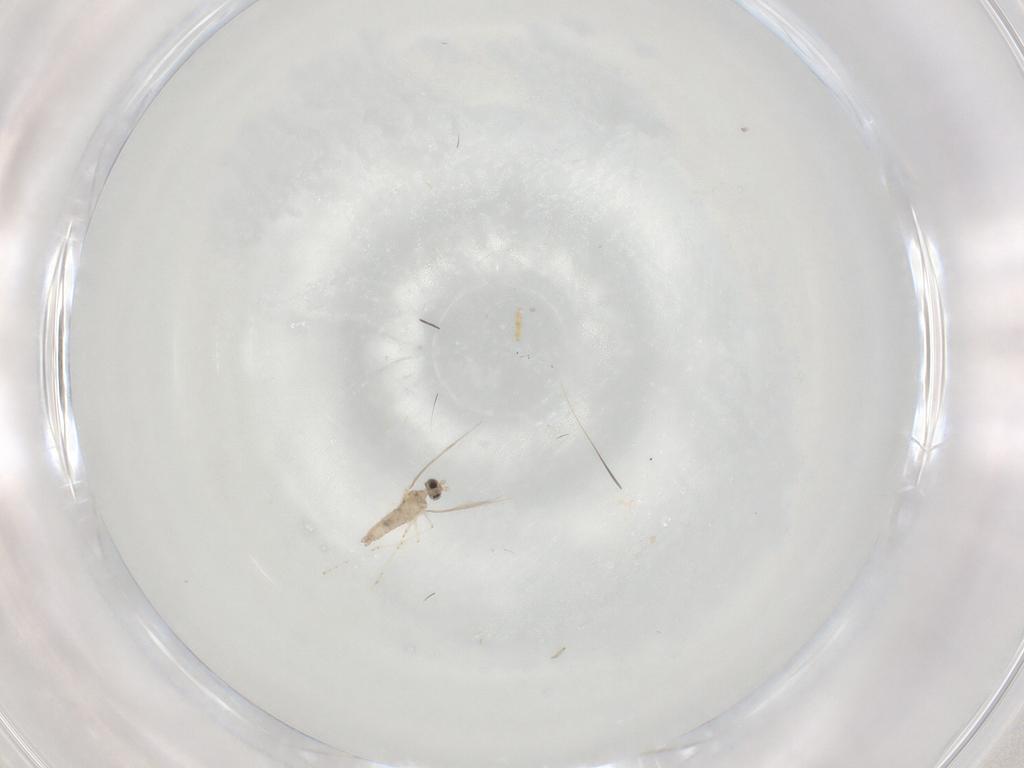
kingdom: Animalia
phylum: Arthropoda
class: Insecta
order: Diptera
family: Cecidomyiidae
